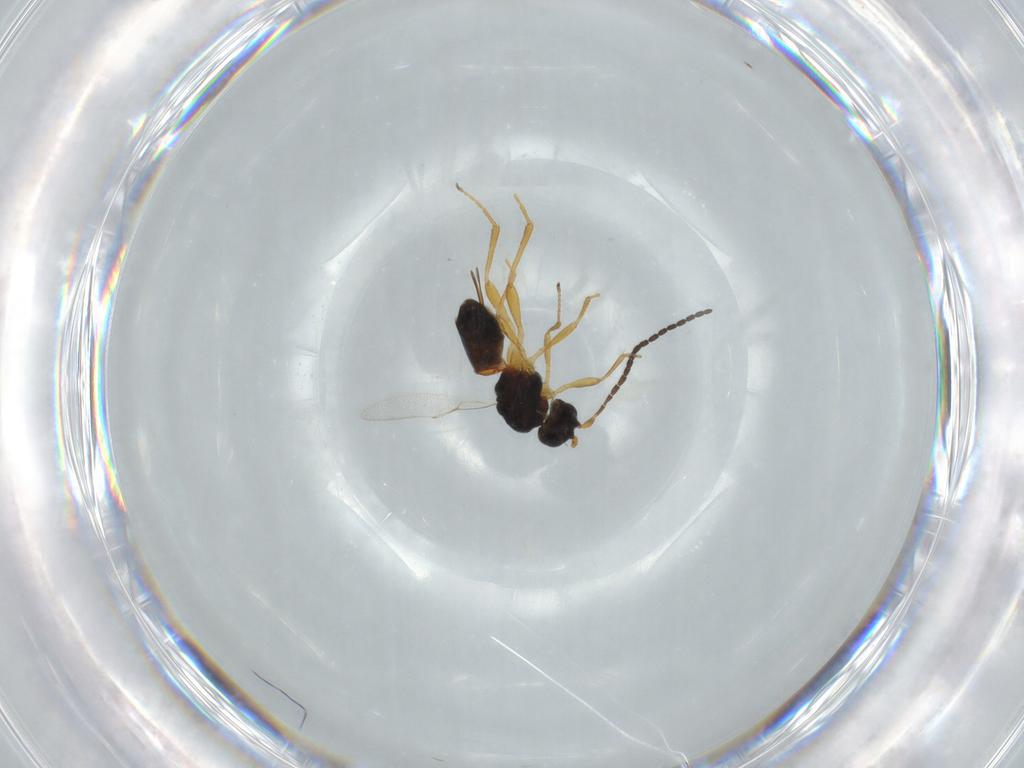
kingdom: Animalia
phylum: Arthropoda
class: Insecta
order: Hymenoptera
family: Braconidae
